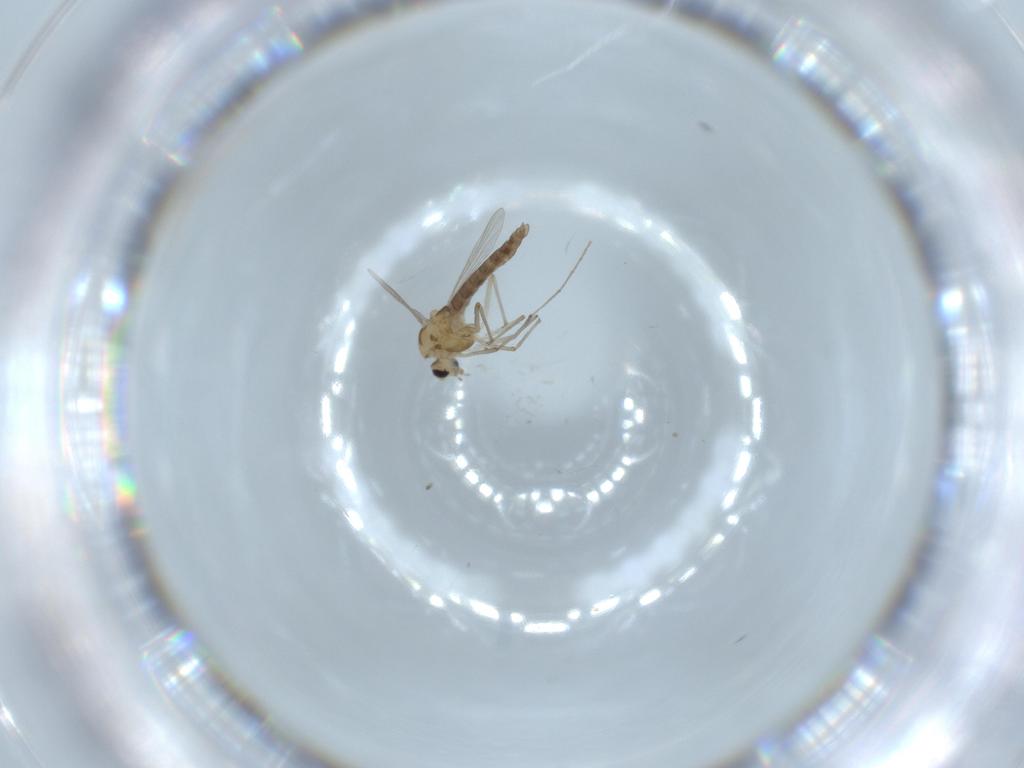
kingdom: Animalia
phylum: Arthropoda
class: Insecta
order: Diptera
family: Chironomidae
